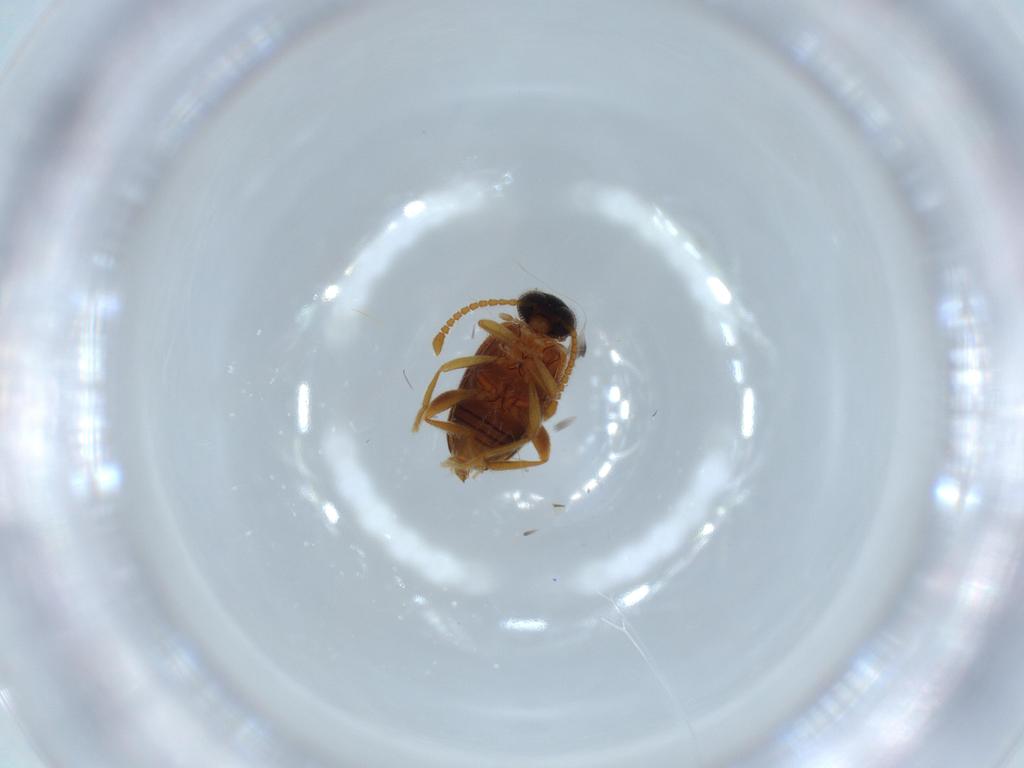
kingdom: Animalia
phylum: Arthropoda
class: Insecta
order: Coleoptera
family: Aderidae
